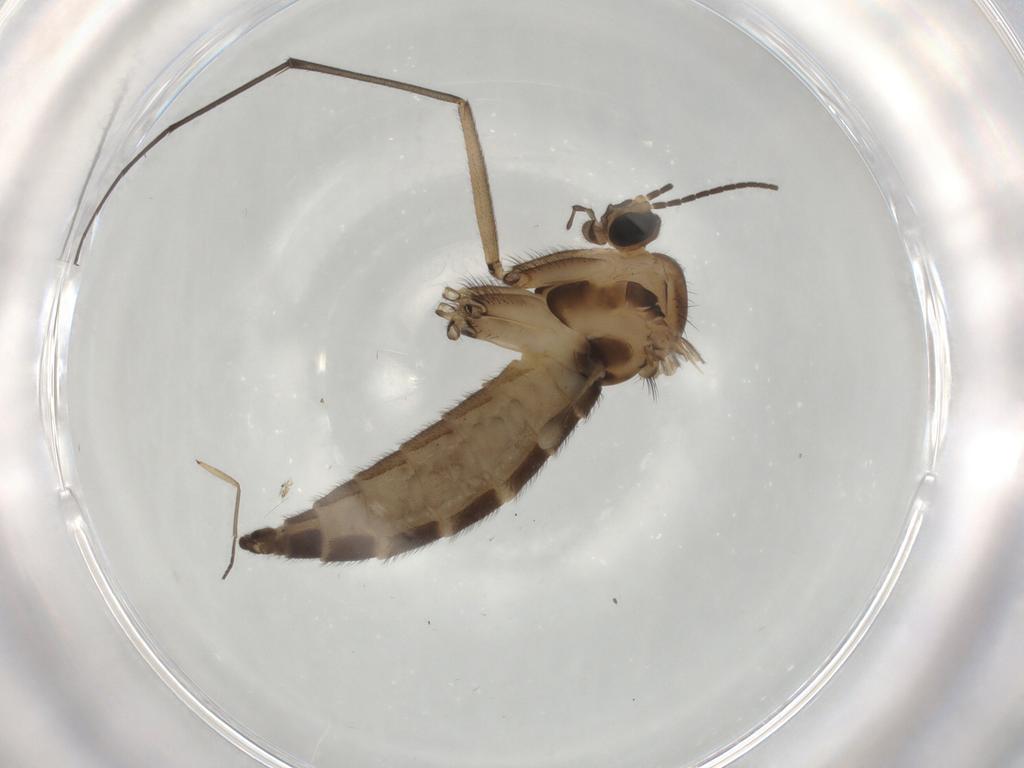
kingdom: Animalia
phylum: Arthropoda
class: Insecta
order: Diptera
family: Sciaridae
